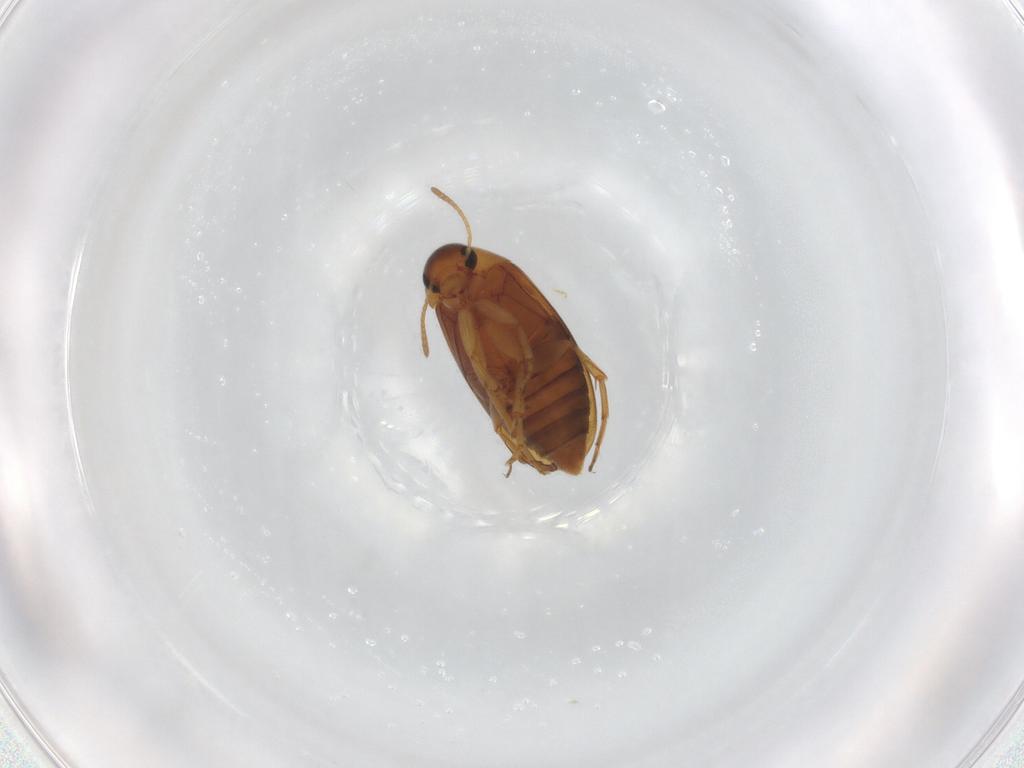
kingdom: Animalia
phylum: Arthropoda
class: Insecta
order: Coleoptera
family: Scraptiidae
